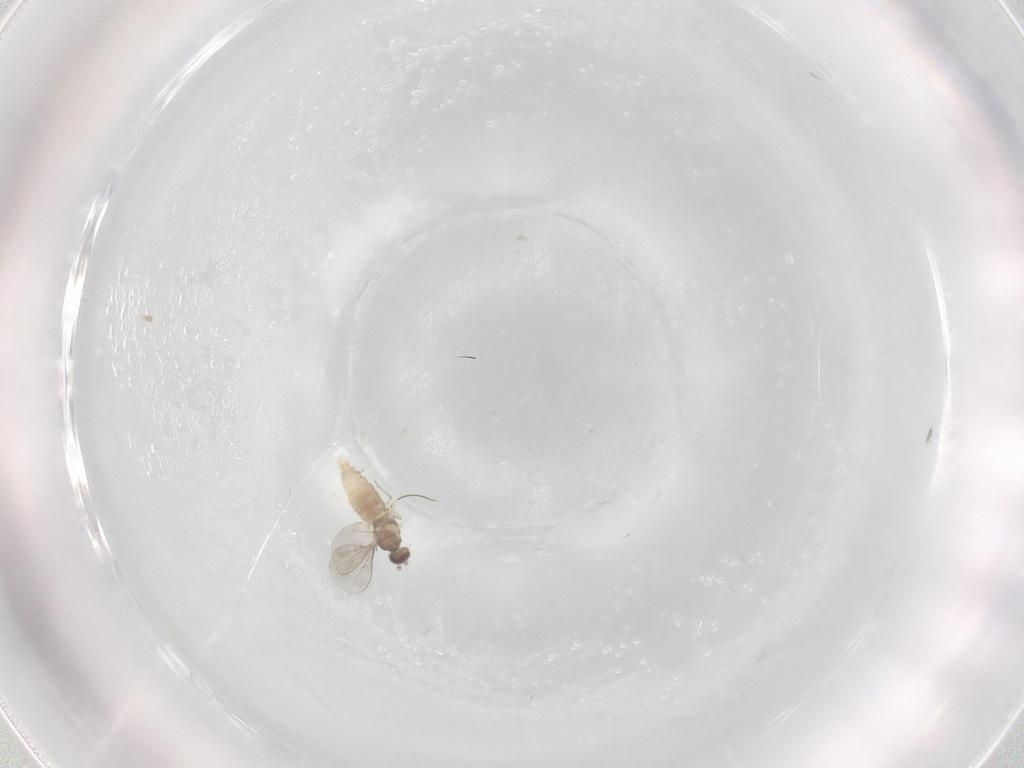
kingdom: Animalia
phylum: Arthropoda
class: Insecta
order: Diptera
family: Cecidomyiidae
